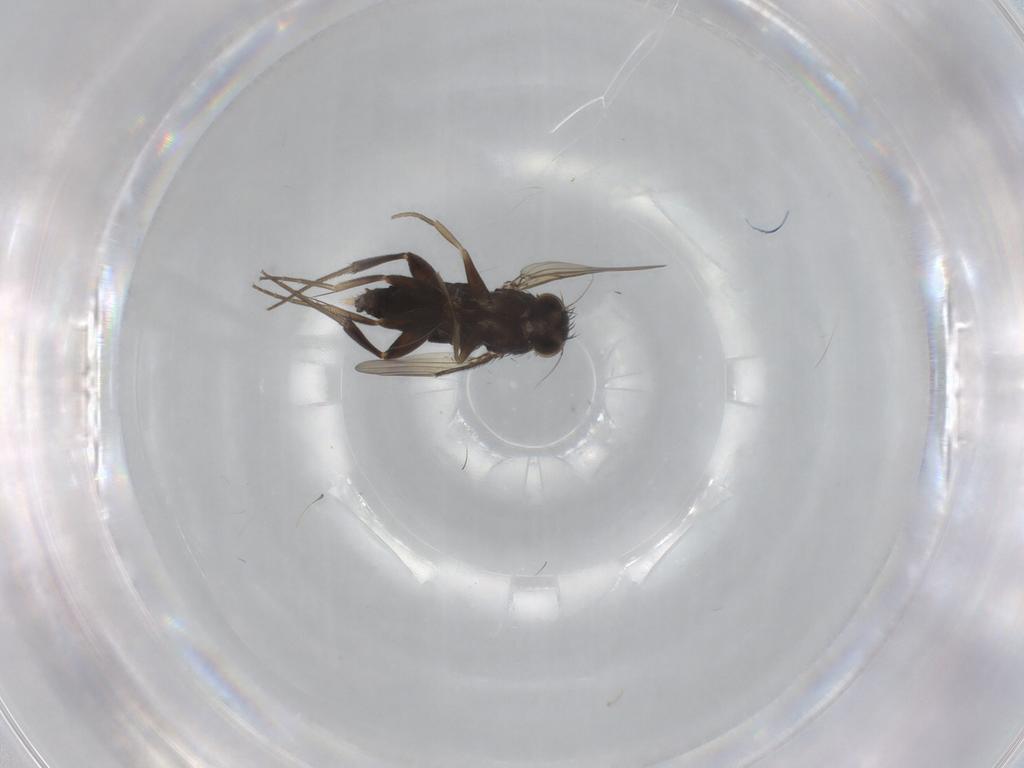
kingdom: Animalia
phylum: Arthropoda
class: Insecta
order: Diptera
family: Phoridae
